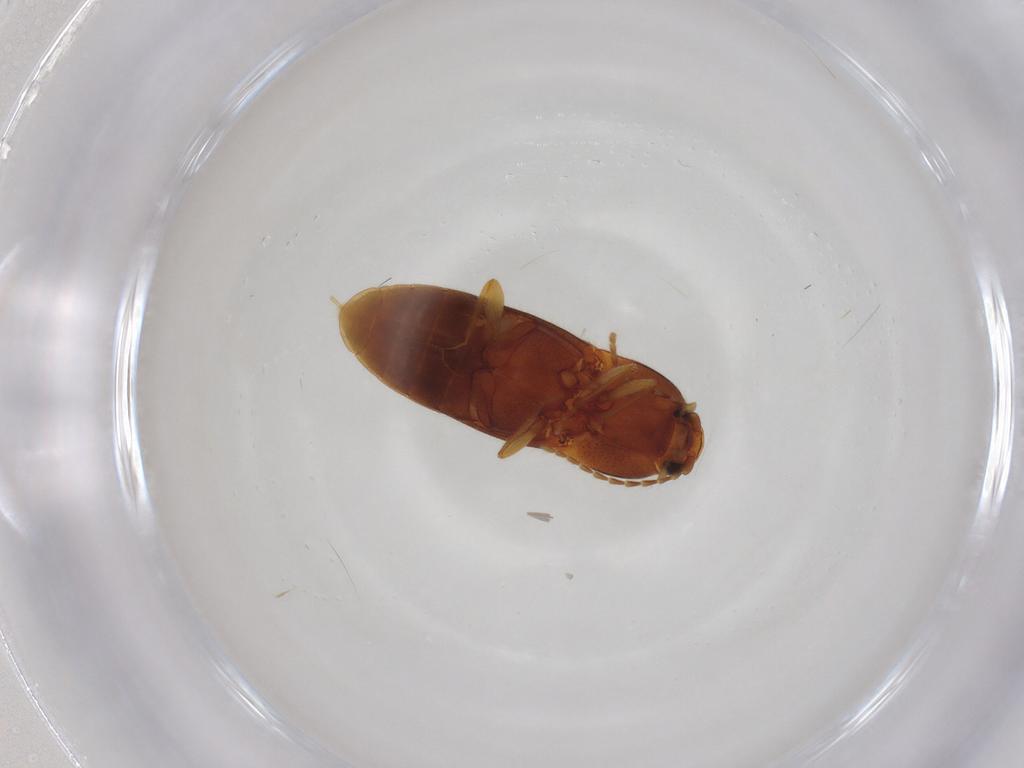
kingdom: Animalia
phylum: Arthropoda
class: Insecta
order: Coleoptera
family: Elateridae
